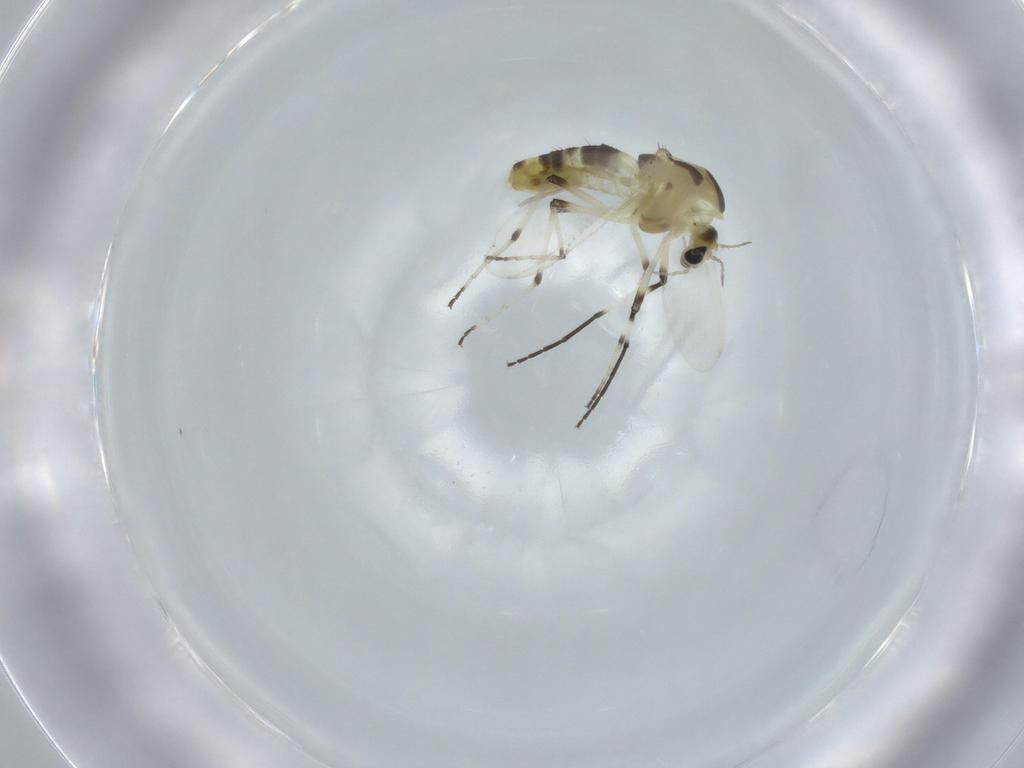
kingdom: Animalia
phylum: Arthropoda
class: Insecta
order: Diptera
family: Chironomidae
